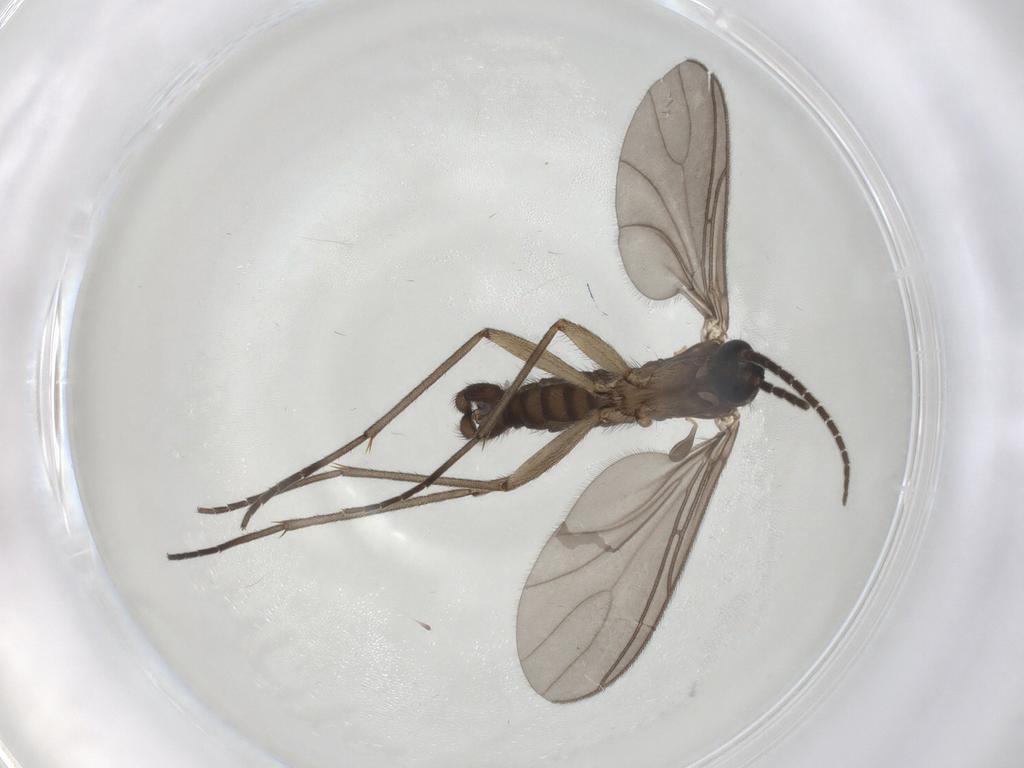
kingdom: Animalia
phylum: Arthropoda
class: Insecta
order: Diptera
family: Sciaridae
